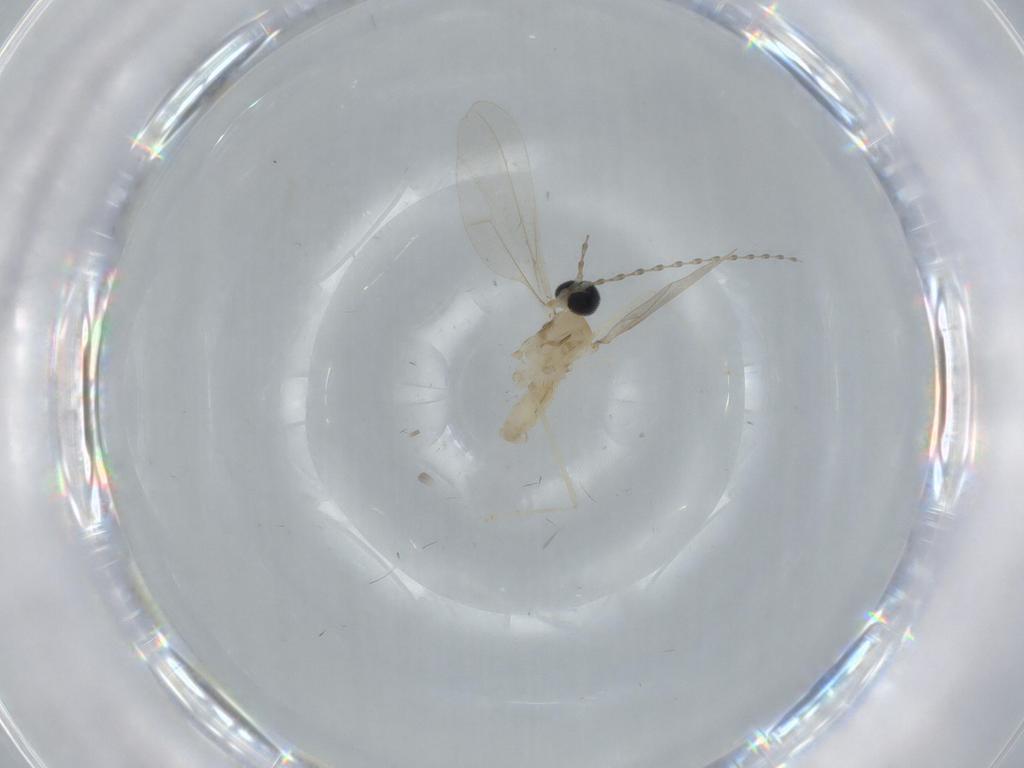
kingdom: Animalia
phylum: Arthropoda
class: Insecta
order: Diptera
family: Cecidomyiidae
